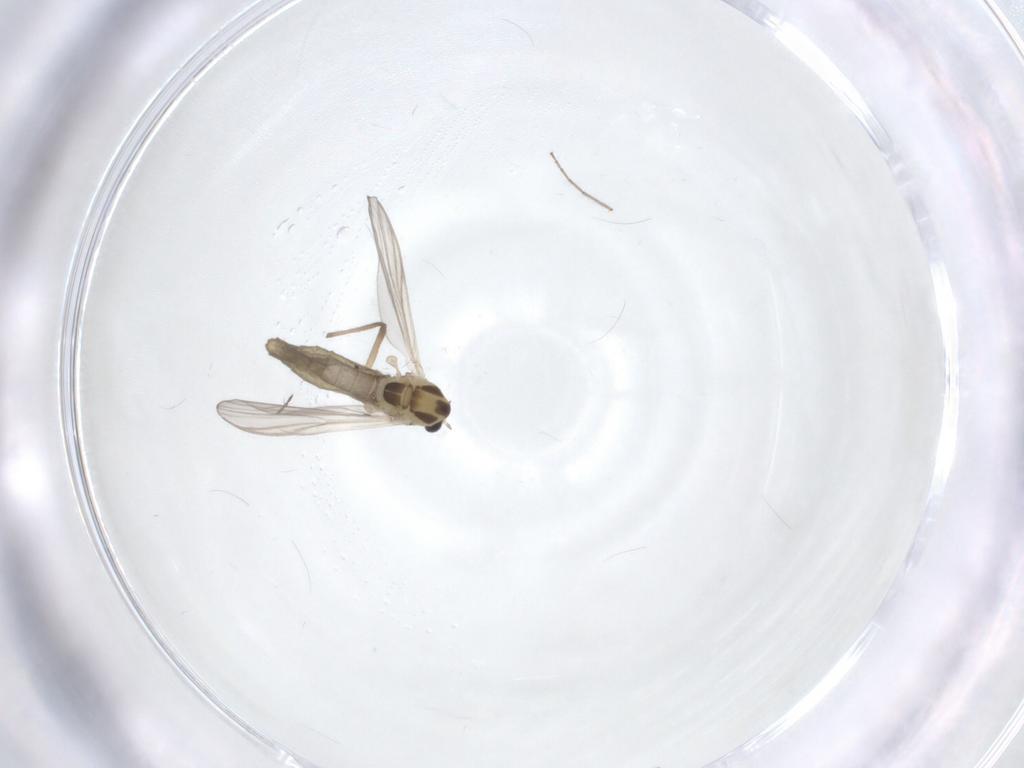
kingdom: Animalia
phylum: Arthropoda
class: Insecta
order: Diptera
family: Chironomidae
